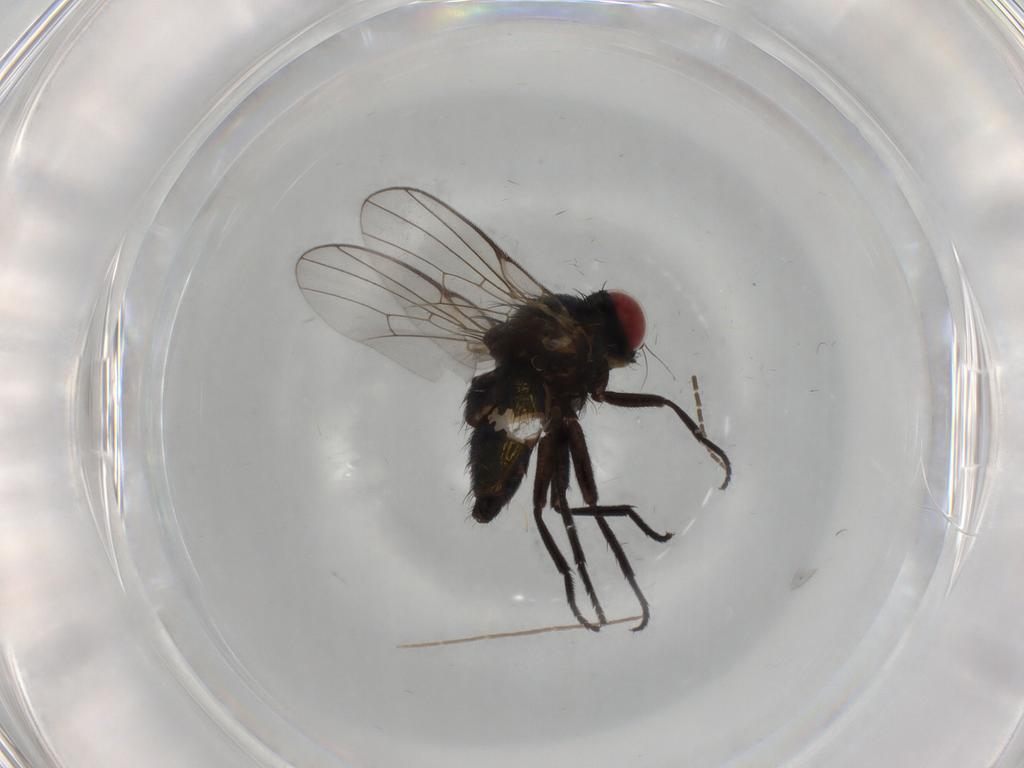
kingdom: Animalia
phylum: Arthropoda
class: Insecta
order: Diptera
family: Agromyzidae
